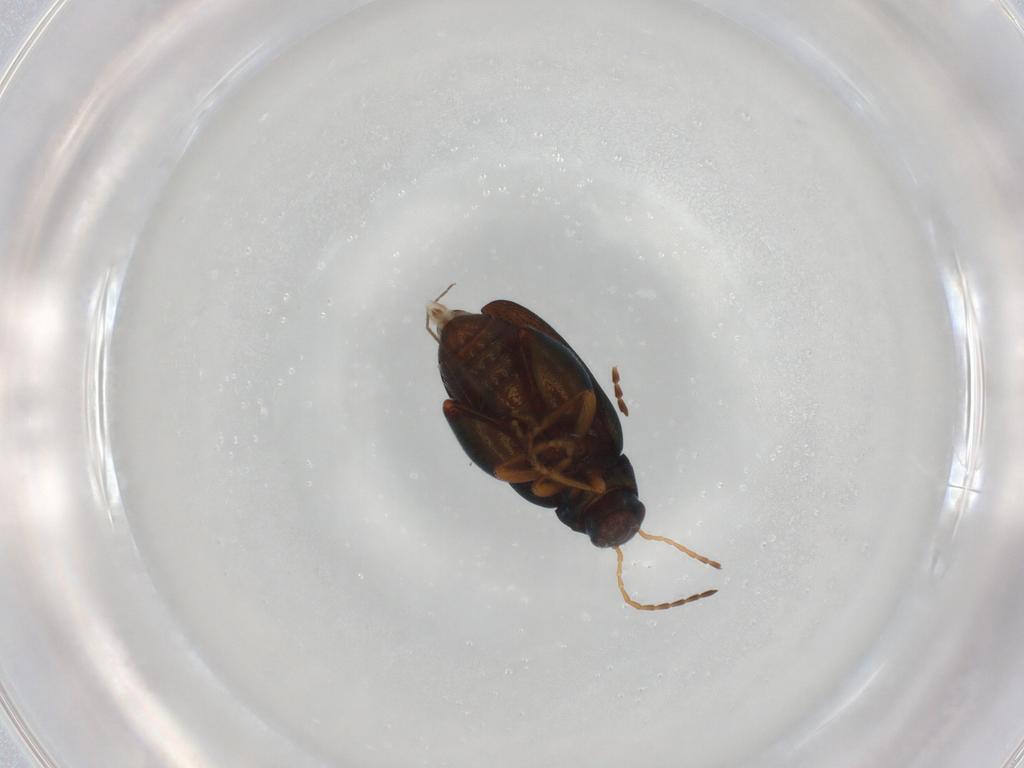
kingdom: Animalia
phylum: Arthropoda
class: Insecta
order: Coleoptera
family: Chrysomelidae
